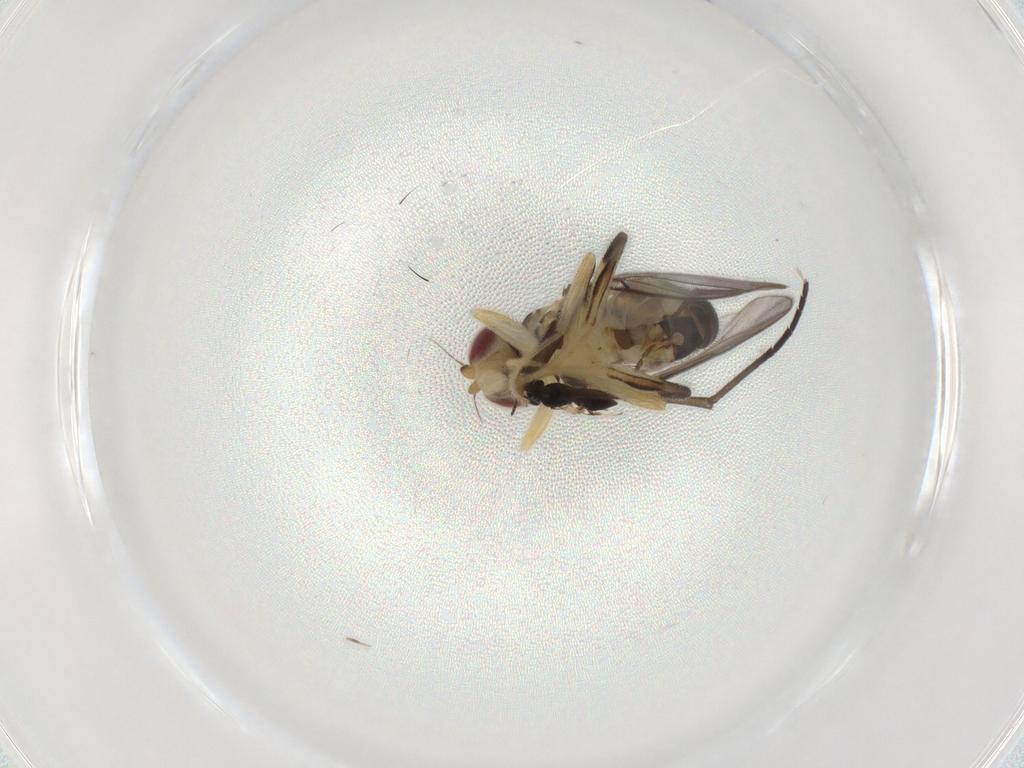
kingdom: Animalia
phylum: Arthropoda
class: Insecta
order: Diptera
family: Chloropidae
